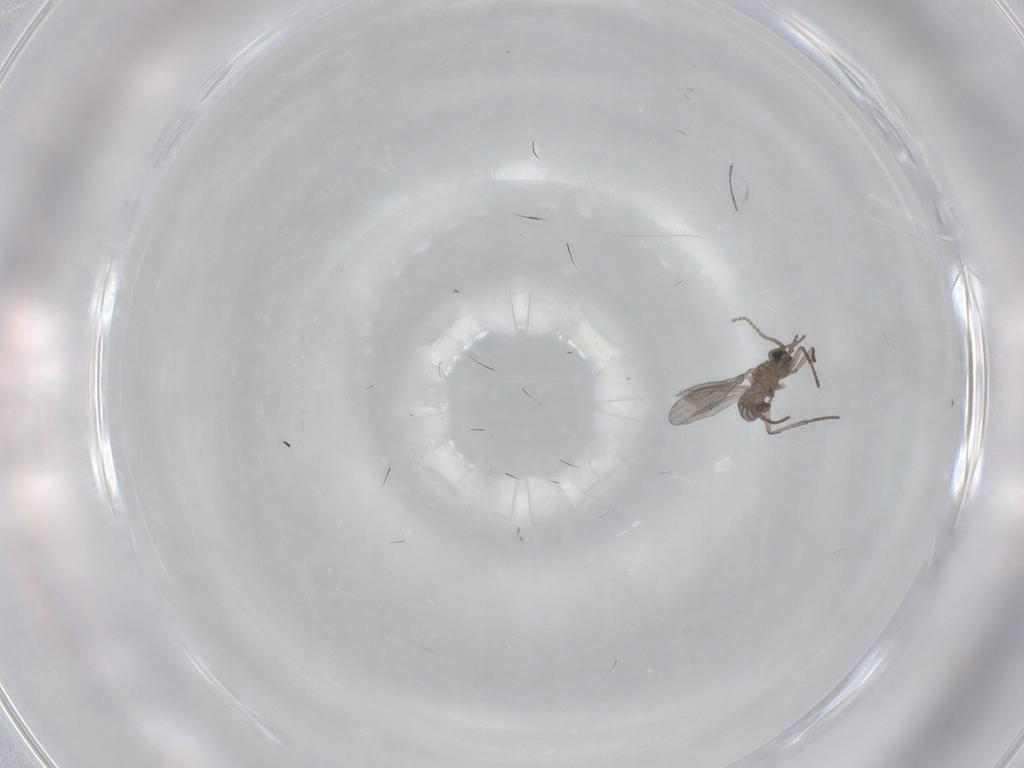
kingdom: Animalia
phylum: Arthropoda
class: Insecta
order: Diptera
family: Sciaridae
